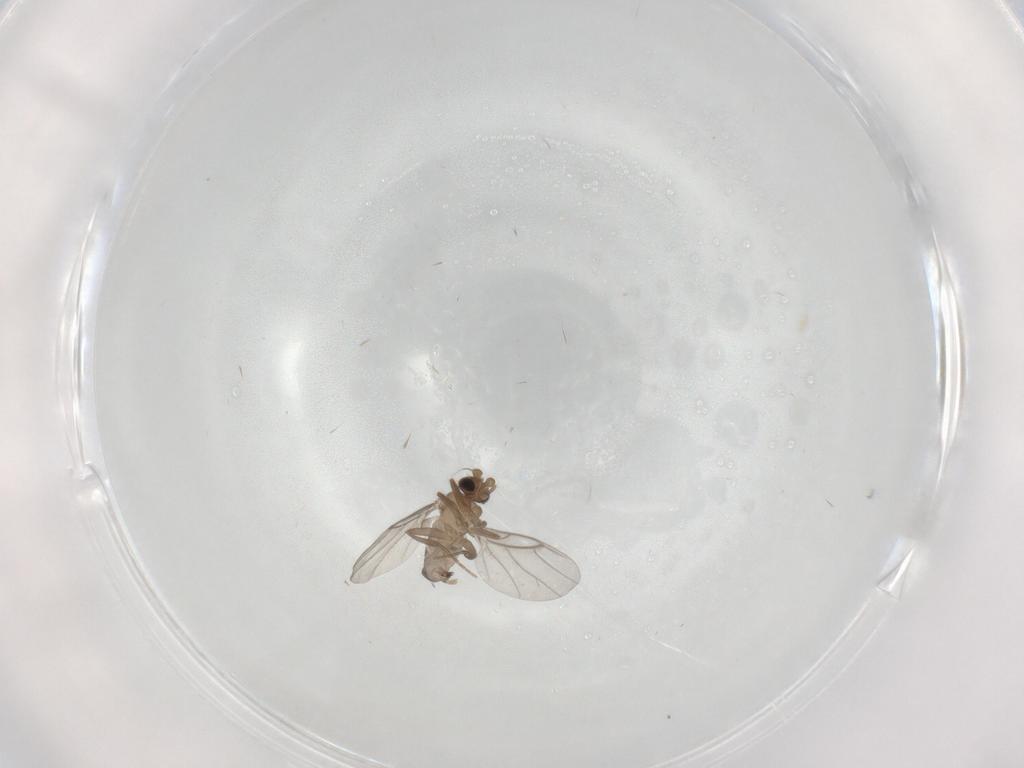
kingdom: Animalia
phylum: Arthropoda
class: Insecta
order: Diptera
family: Phoridae
